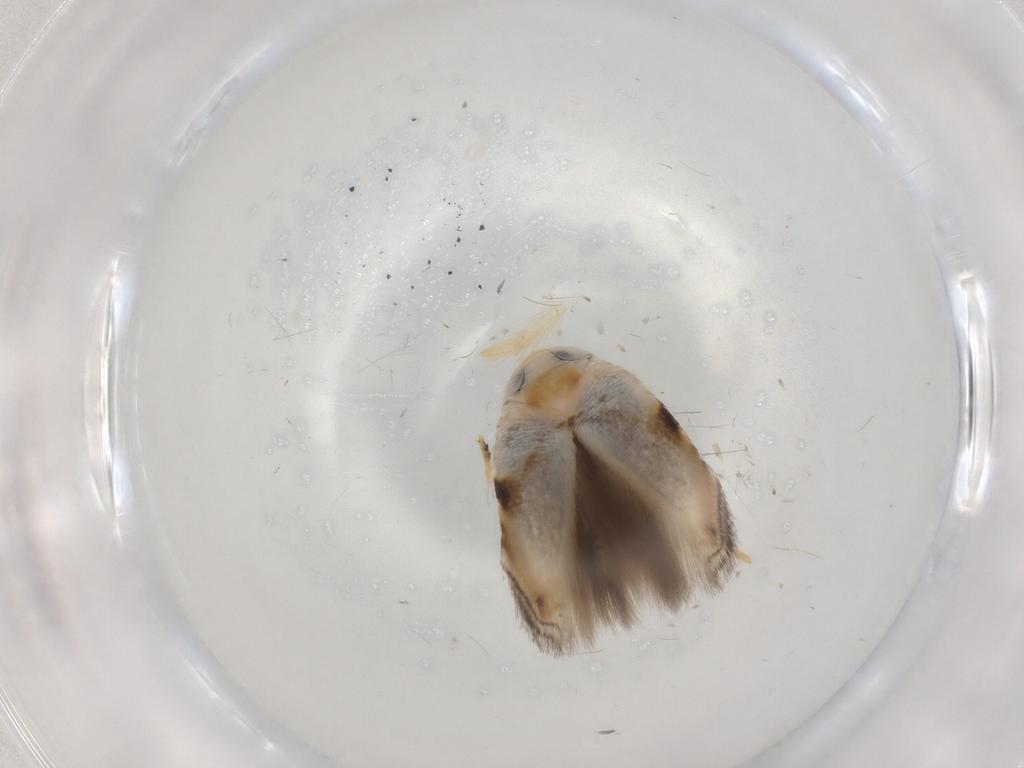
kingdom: Animalia
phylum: Arthropoda
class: Insecta
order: Lepidoptera
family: Opostegidae
